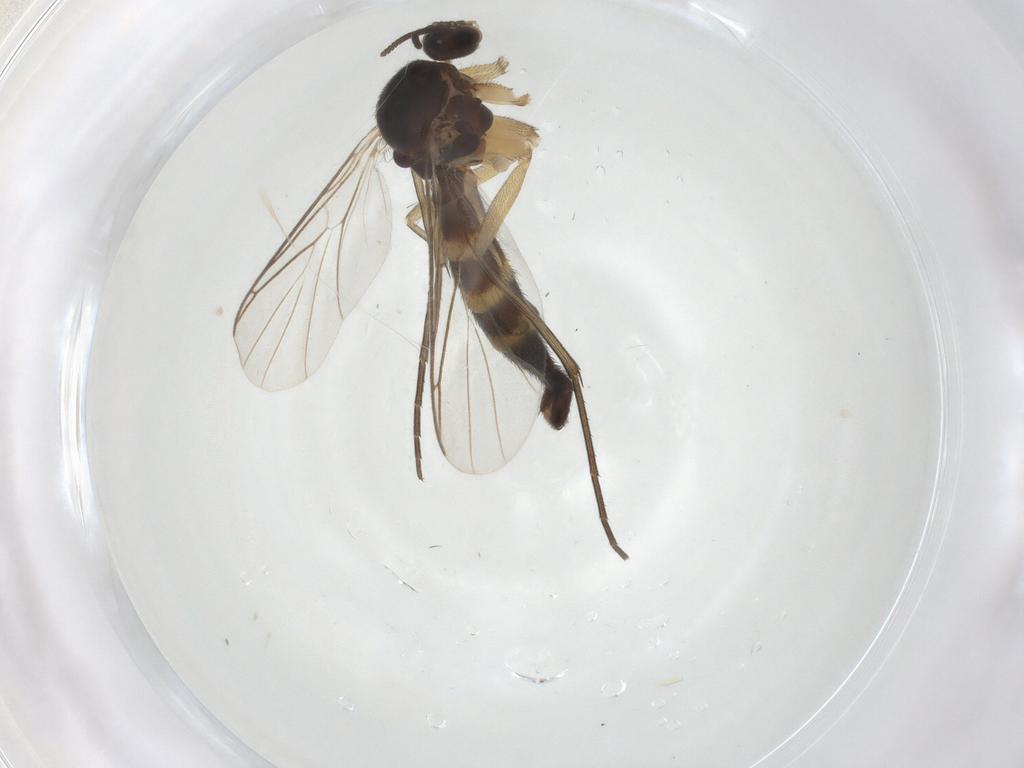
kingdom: Animalia
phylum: Arthropoda
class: Insecta
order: Diptera
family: Keroplatidae
